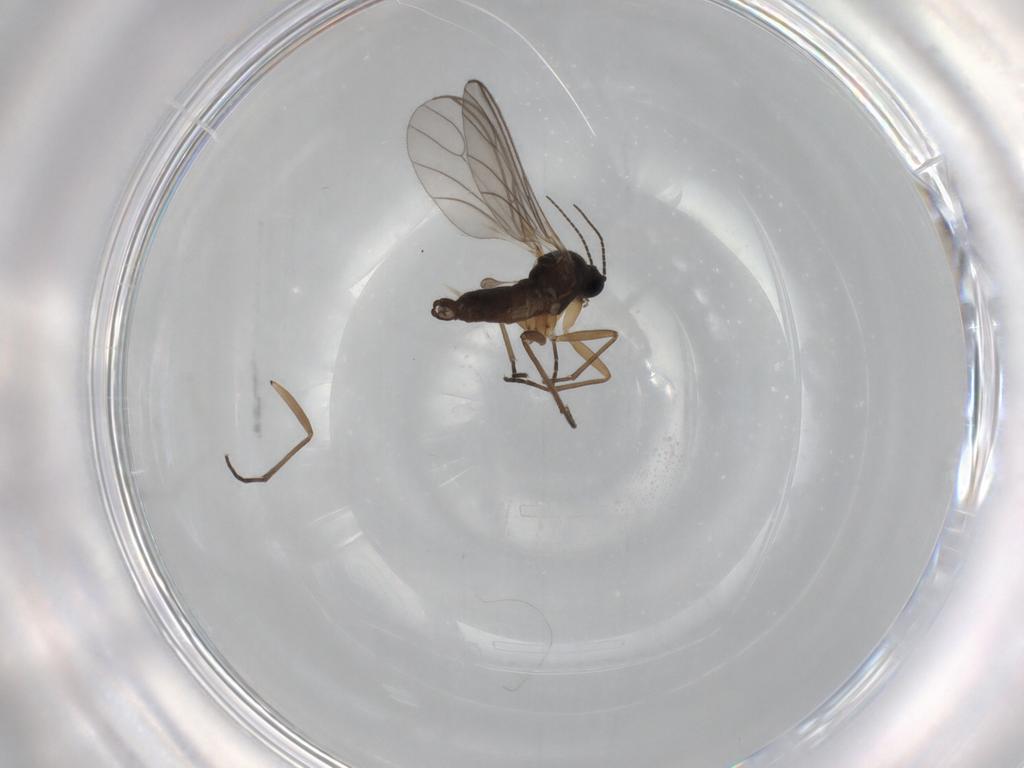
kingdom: Animalia
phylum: Arthropoda
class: Insecta
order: Diptera
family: Sciaridae
